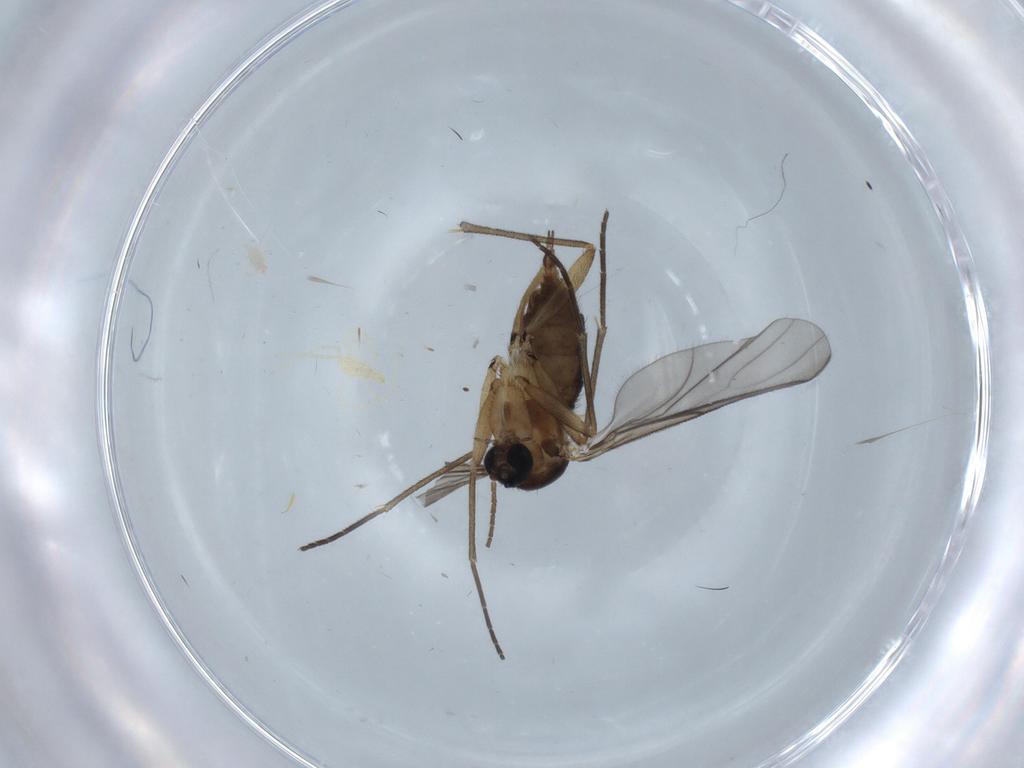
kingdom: Animalia
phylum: Arthropoda
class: Insecta
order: Diptera
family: Sciaridae
